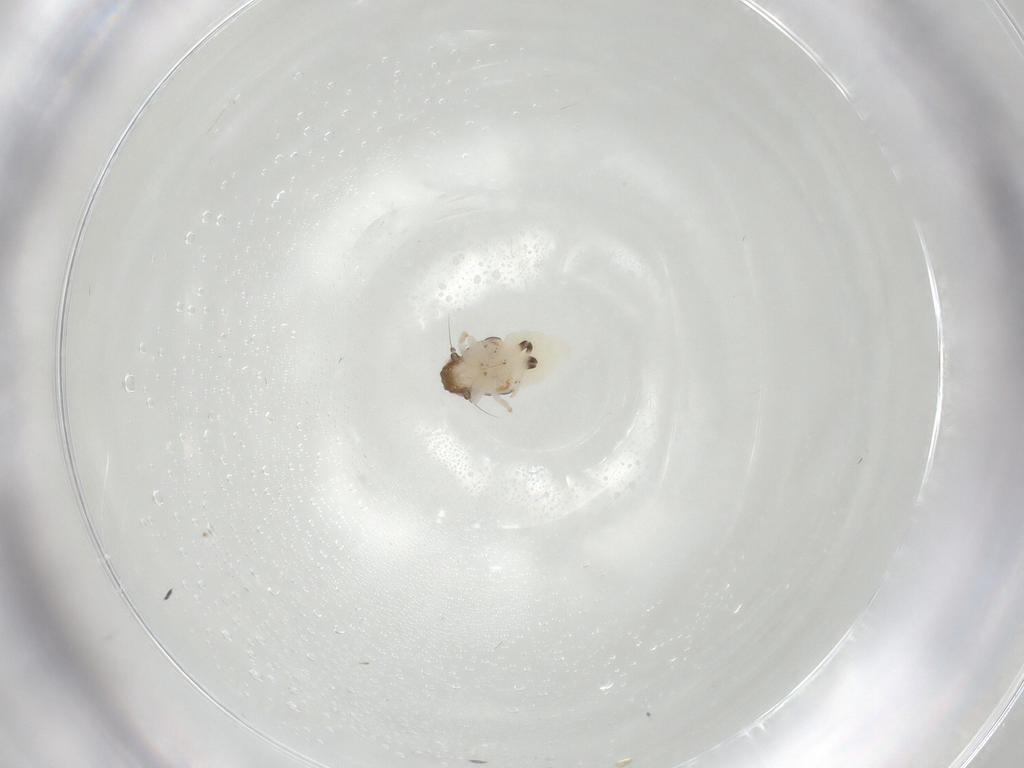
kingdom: Animalia
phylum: Arthropoda
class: Insecta
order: Hemiptera
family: Nogodinidae
